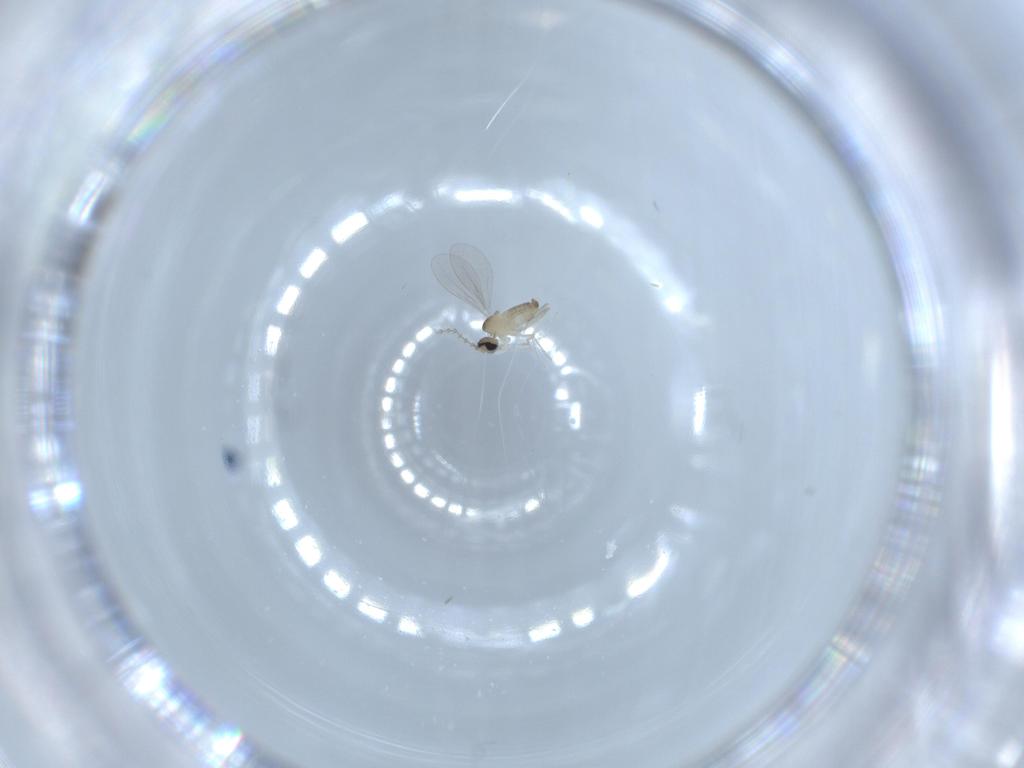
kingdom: Animalia
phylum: Arthropoda
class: Insecta
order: Diptera
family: Cecidomyiidae
